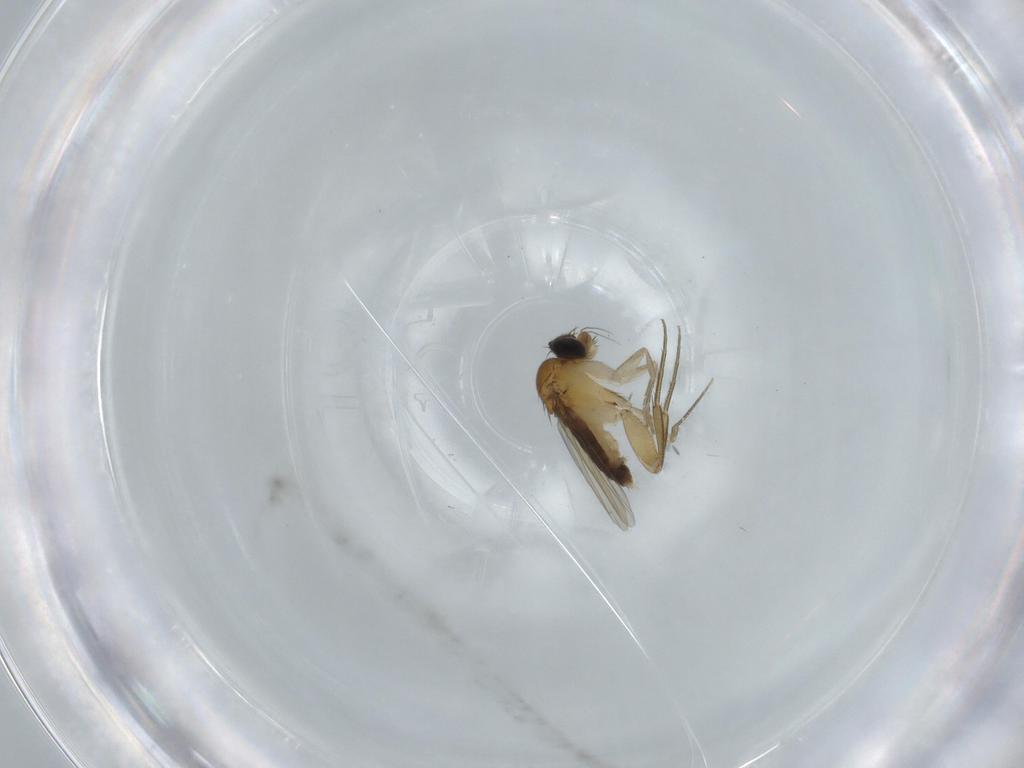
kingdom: Animalia
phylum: Arthropoda
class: Insecta
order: Diptera
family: Phoridae
